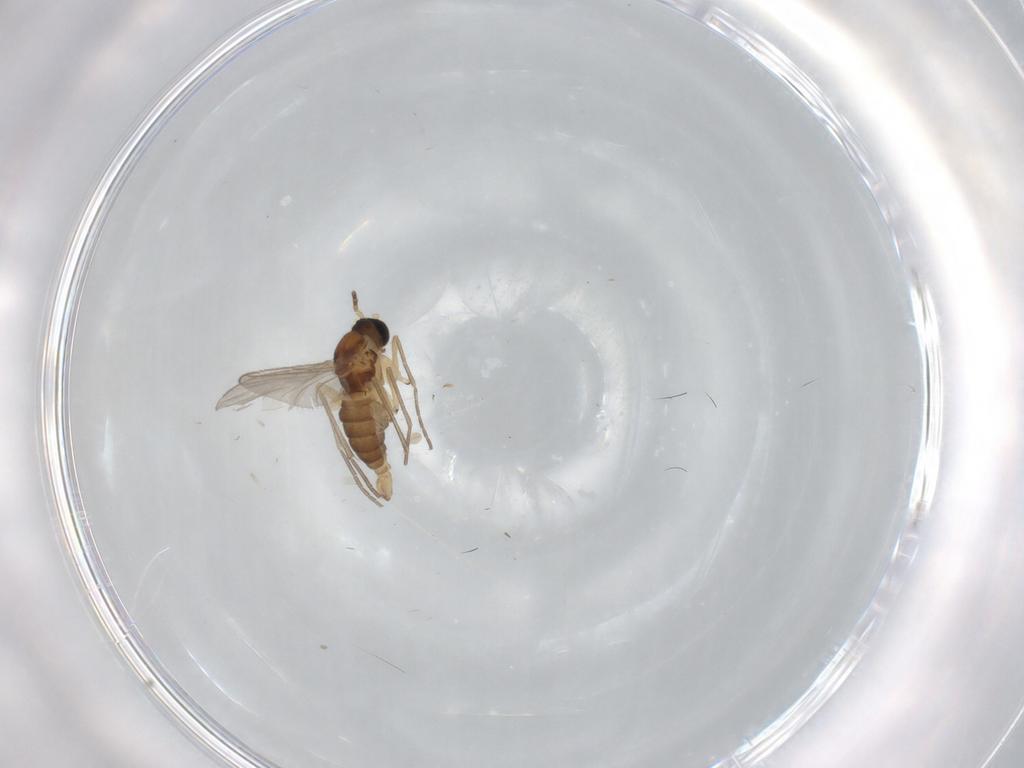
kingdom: Animalia
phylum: Arthropoda
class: Insecta
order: Diptera
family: Sciaridae
